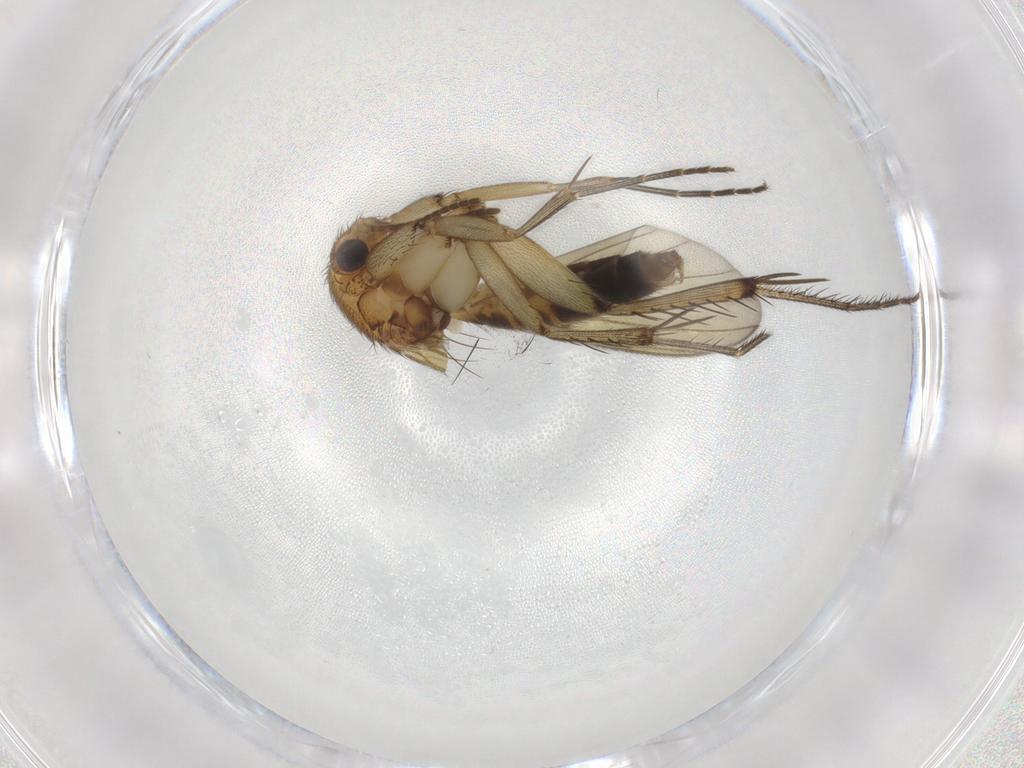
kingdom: Animalia
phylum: Arthropoda
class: Insecta
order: Diptera
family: Mycetophilidae
